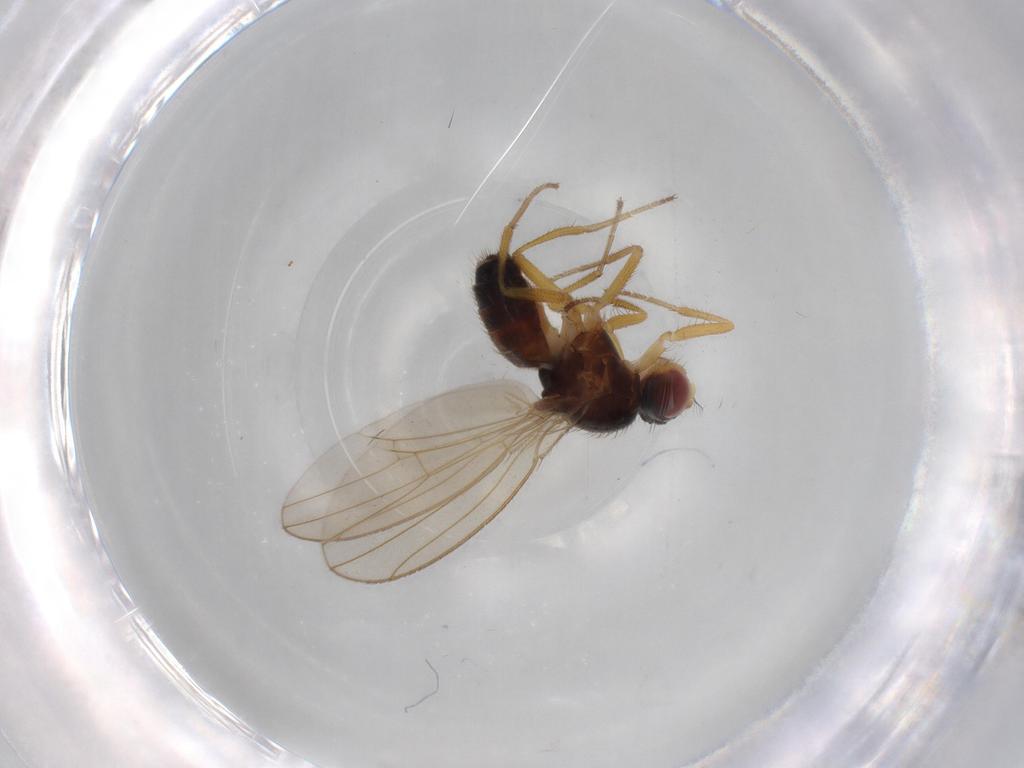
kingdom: Animalia
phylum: Arthropoda
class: Insecta
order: Diptera
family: Drosophilidae
